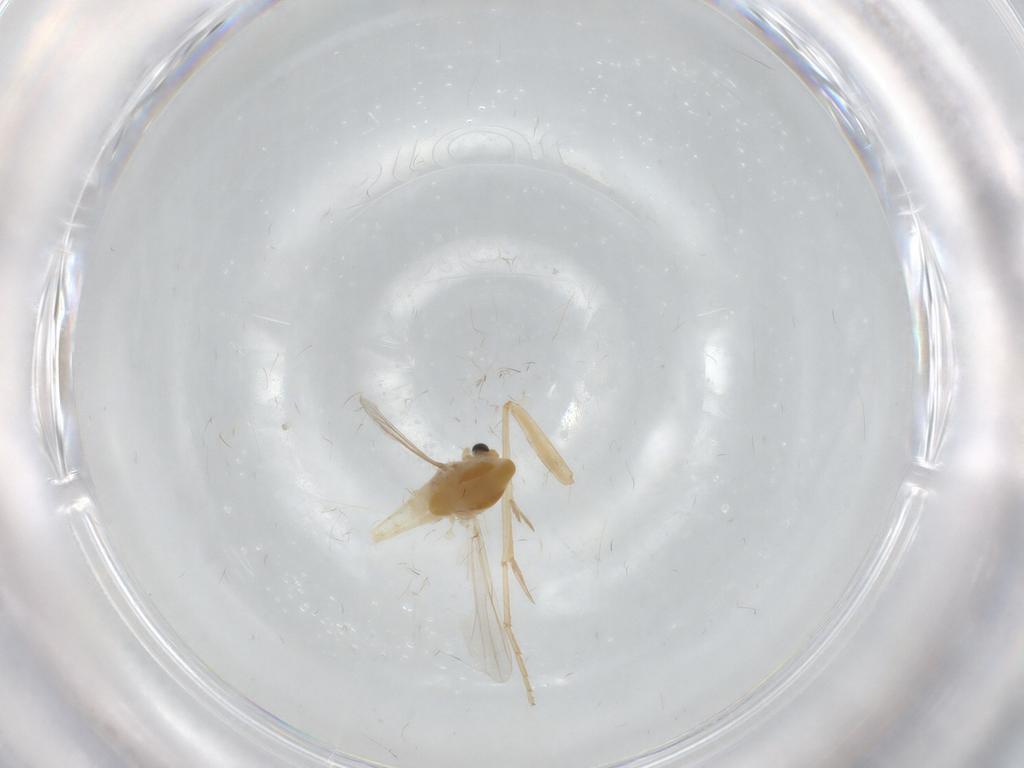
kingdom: Animalia
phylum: Arthropoda
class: Insecta
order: Diptera
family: Chironomidae
